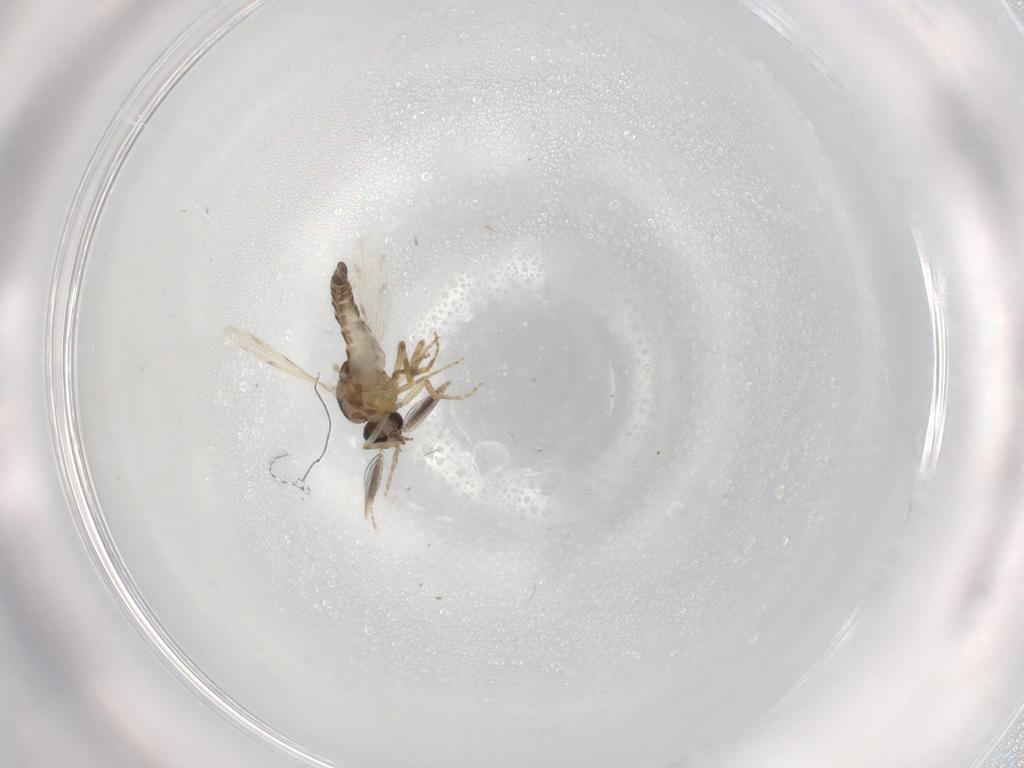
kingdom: Animalia
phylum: Arthropoda
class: Insecta
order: Diptera
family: Ceratopogonidae
